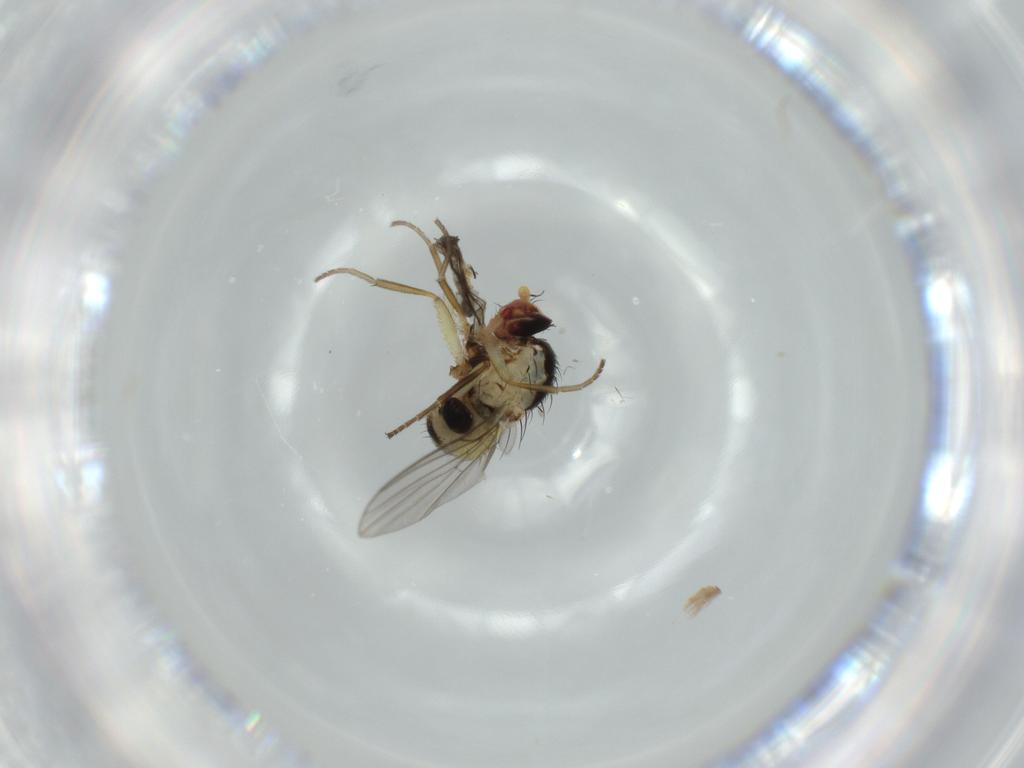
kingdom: Animalia
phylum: Arthropoda
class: Insecta
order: Diptera
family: Agromyzidae
